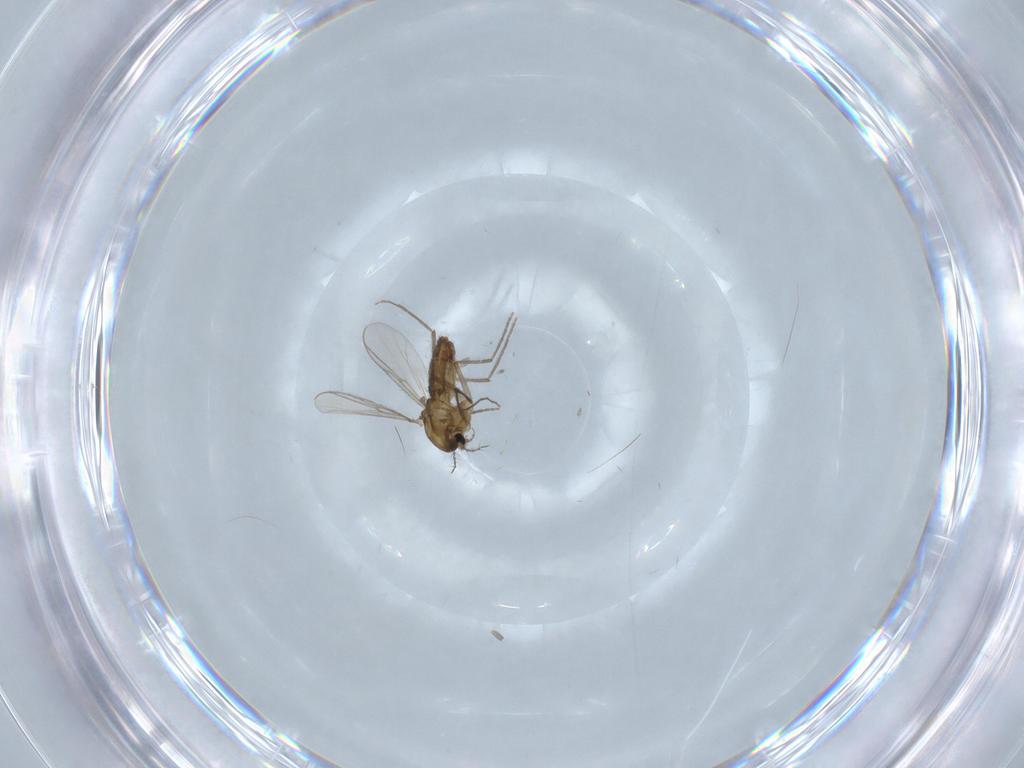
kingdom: Animalia
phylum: Arthropoda
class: Insecta
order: Diptera
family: Chironomidae
